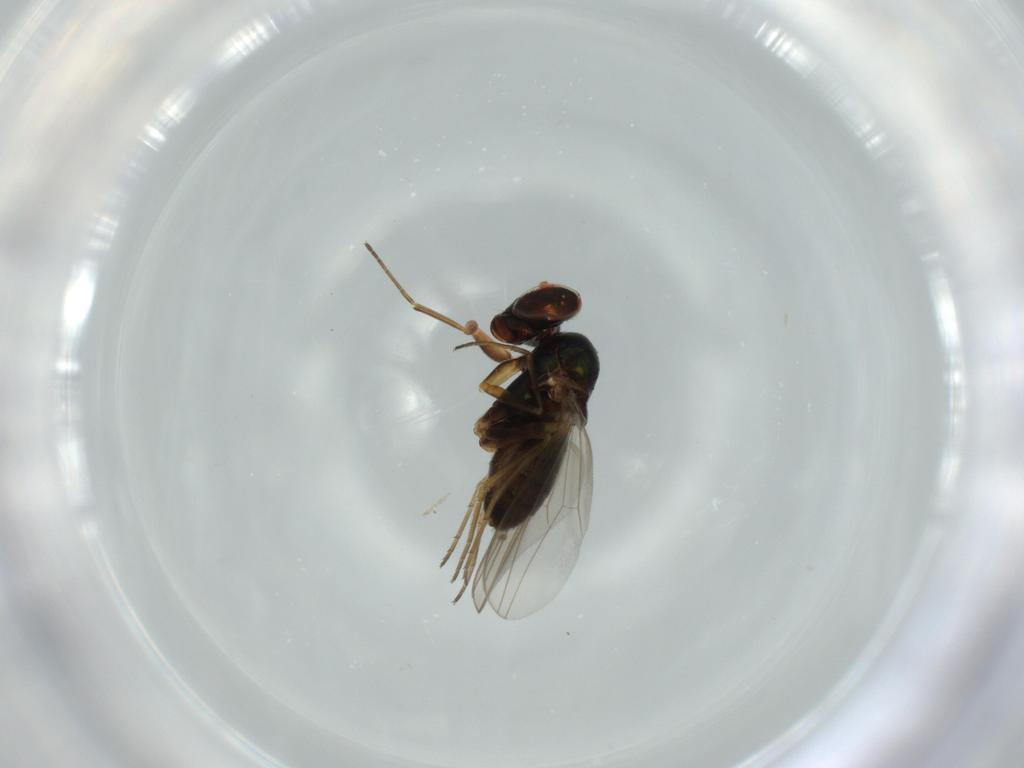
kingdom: Animalia
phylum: Arthropoda
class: Insecta
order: Diptera
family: Dolichopodidae
